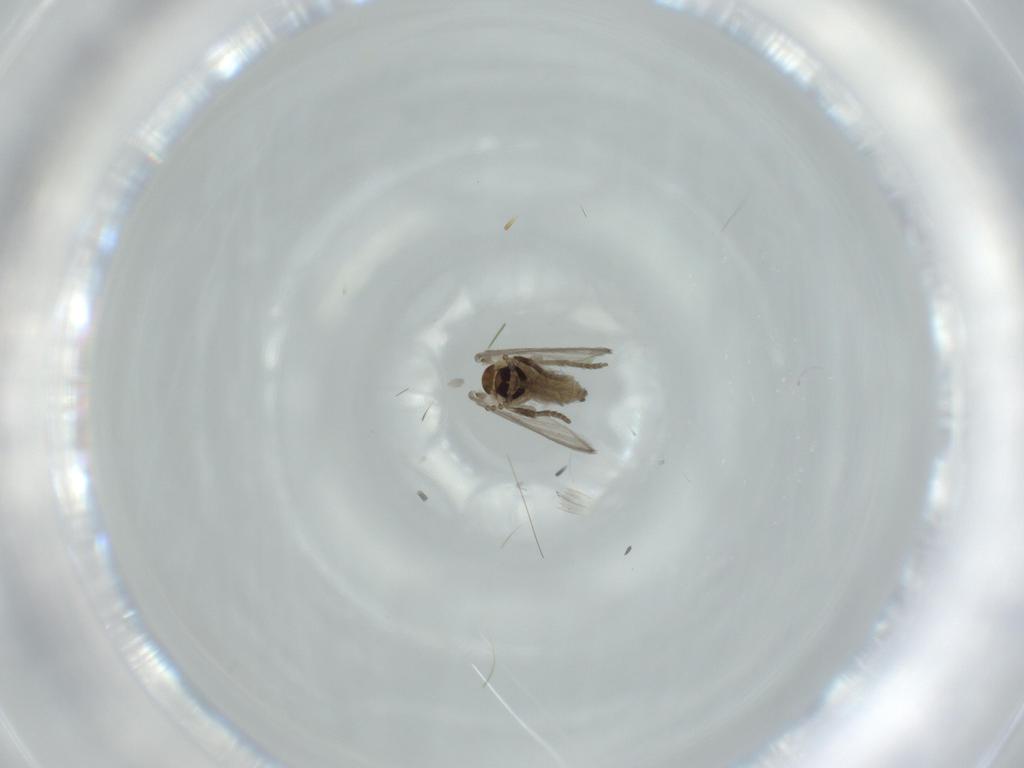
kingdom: Animalia
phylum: Arthropoda
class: Insecta
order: Diptera
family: Psychodidae
